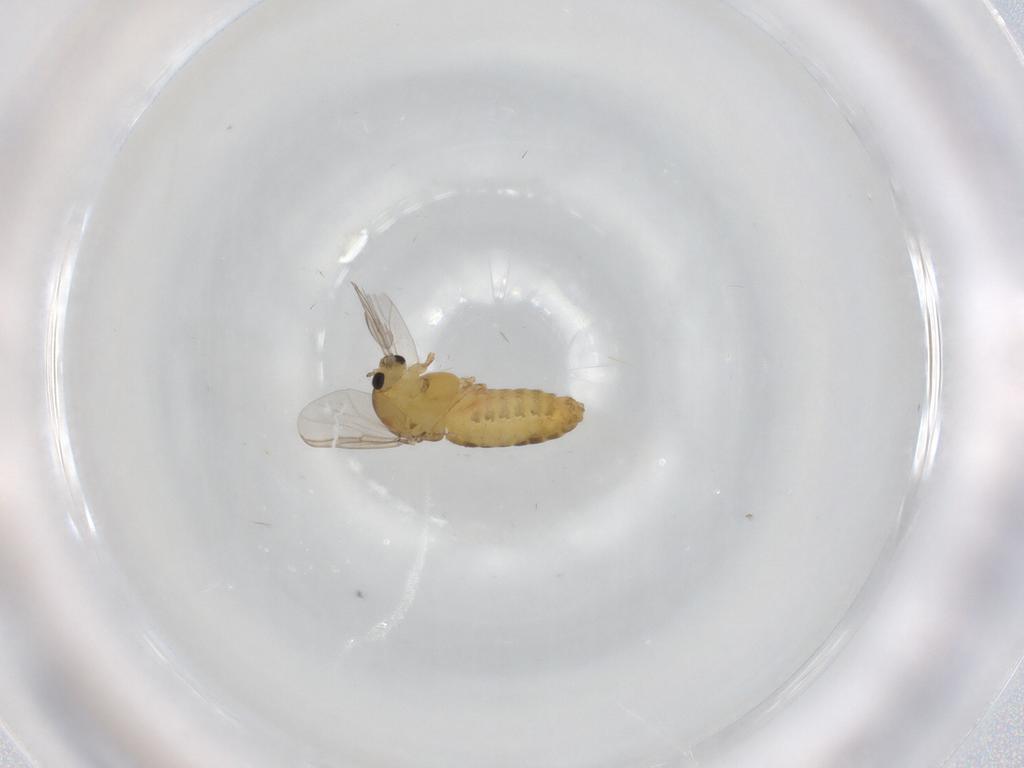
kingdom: Animalia
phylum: Arthropoda
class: Insecta
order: Diptera
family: Chironomidae
